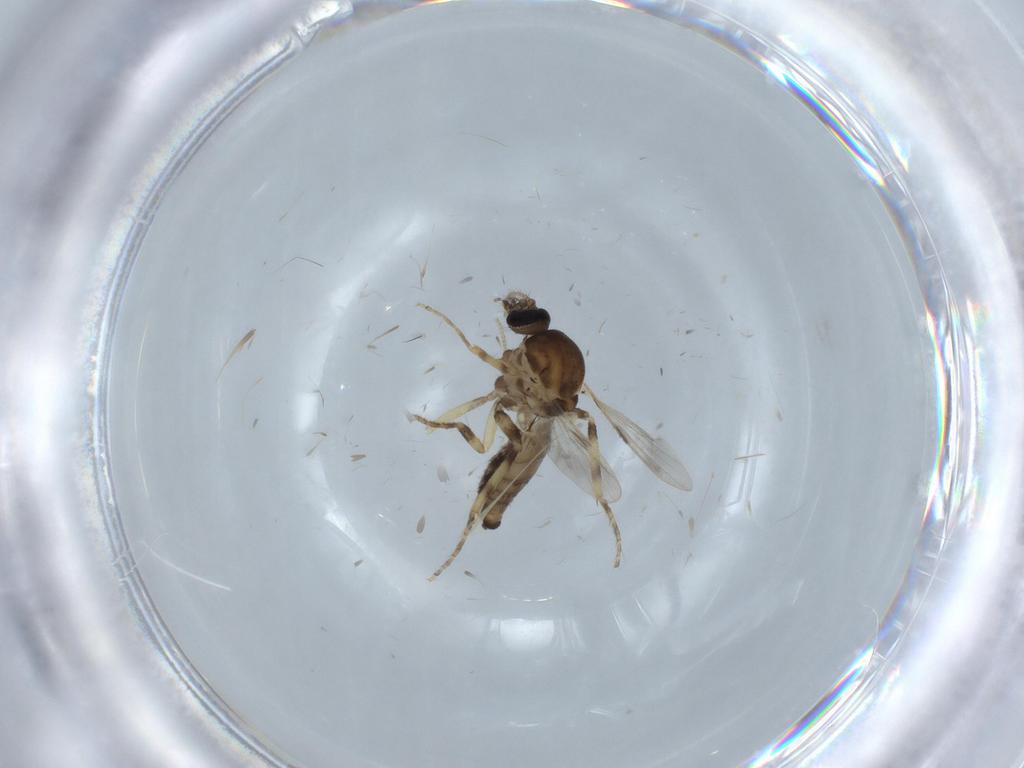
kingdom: Animalia
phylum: Arthropoda
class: Insecta
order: Diptera
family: Ceratopogonidae
